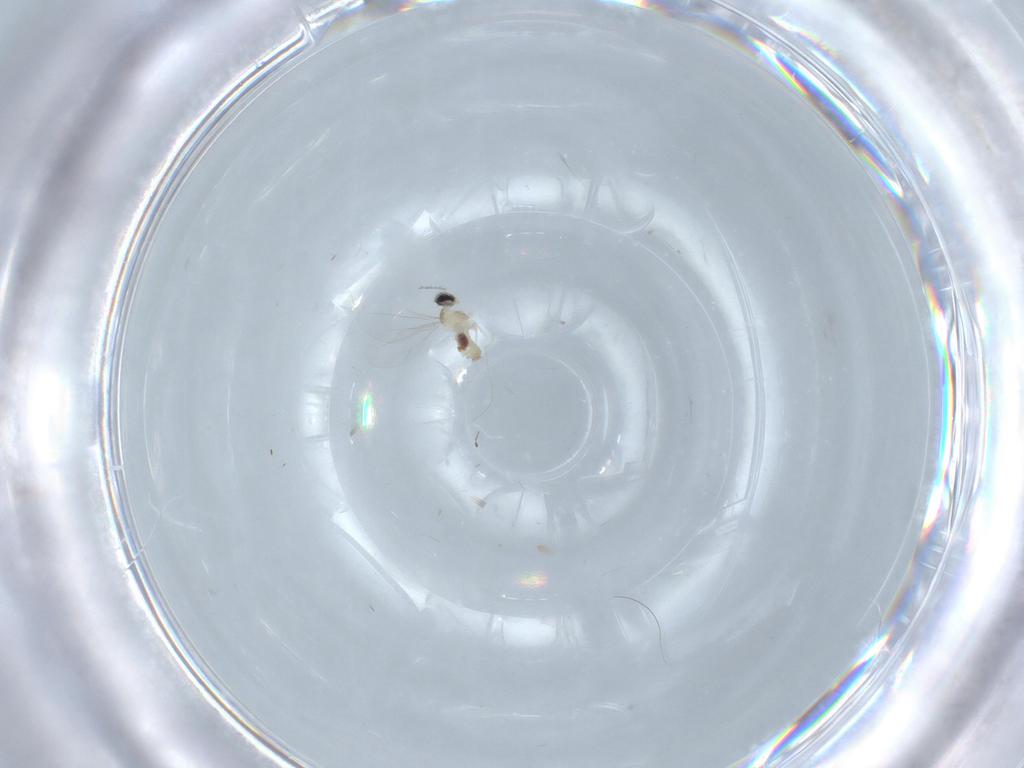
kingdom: Animalia
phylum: Arthropoda
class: Insecta
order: Diptera
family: Cecidomyiidae
